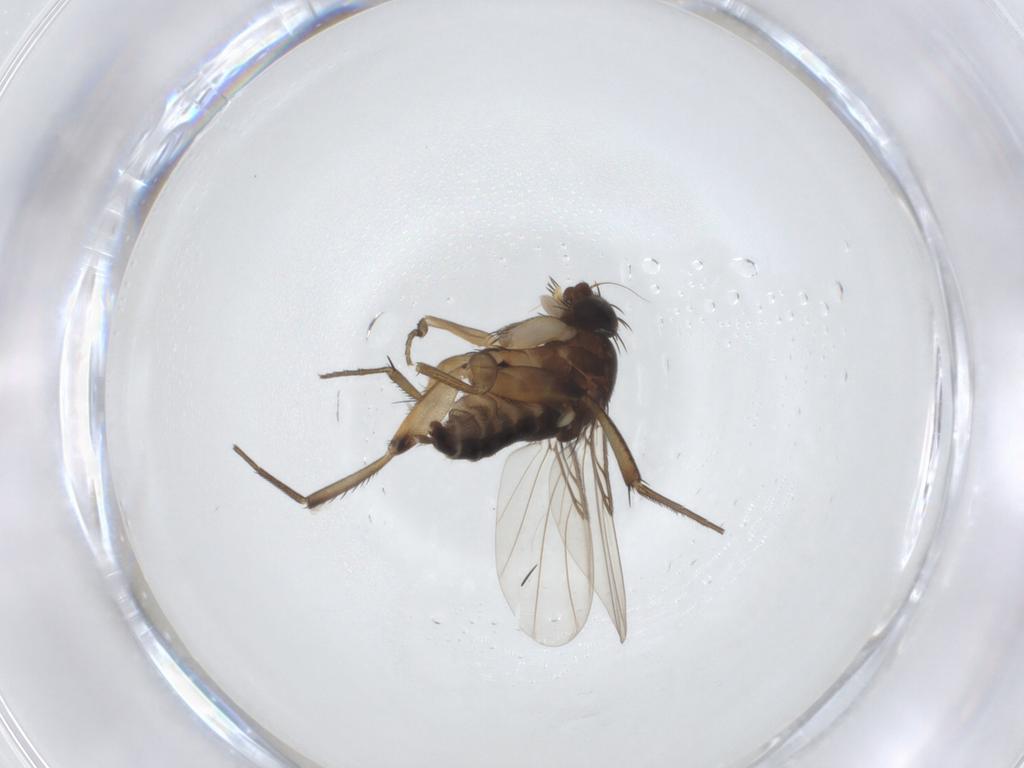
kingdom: Animalia
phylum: Arthropoda
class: Insecta
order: Diptera
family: Phoridae
